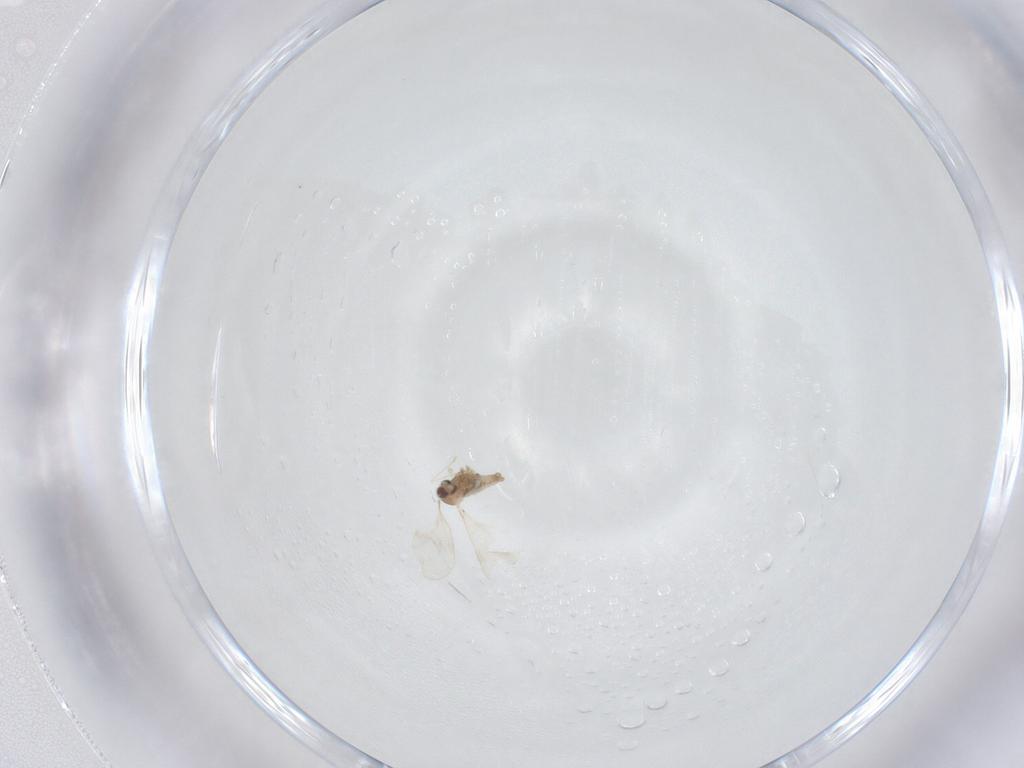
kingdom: Animalia
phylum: Arthropoda
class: Insecta
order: Diptera
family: Cecidomyiidae
